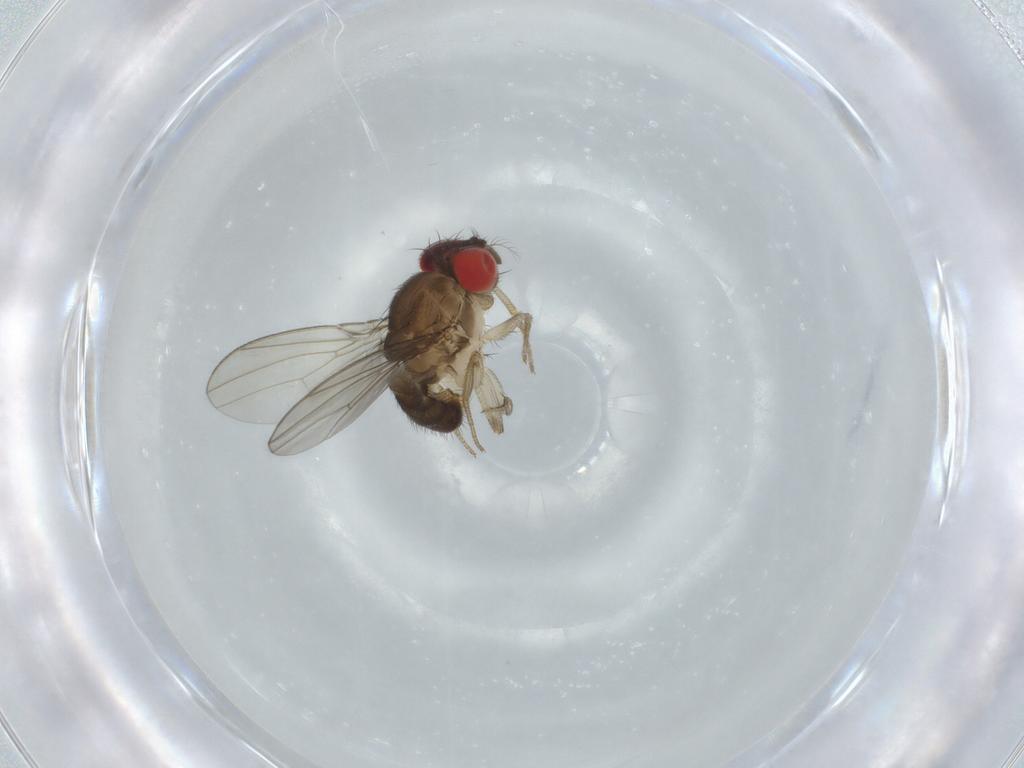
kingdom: Animalia
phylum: Arthropoda
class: Insecta
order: Diptera
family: Drosophilidae
